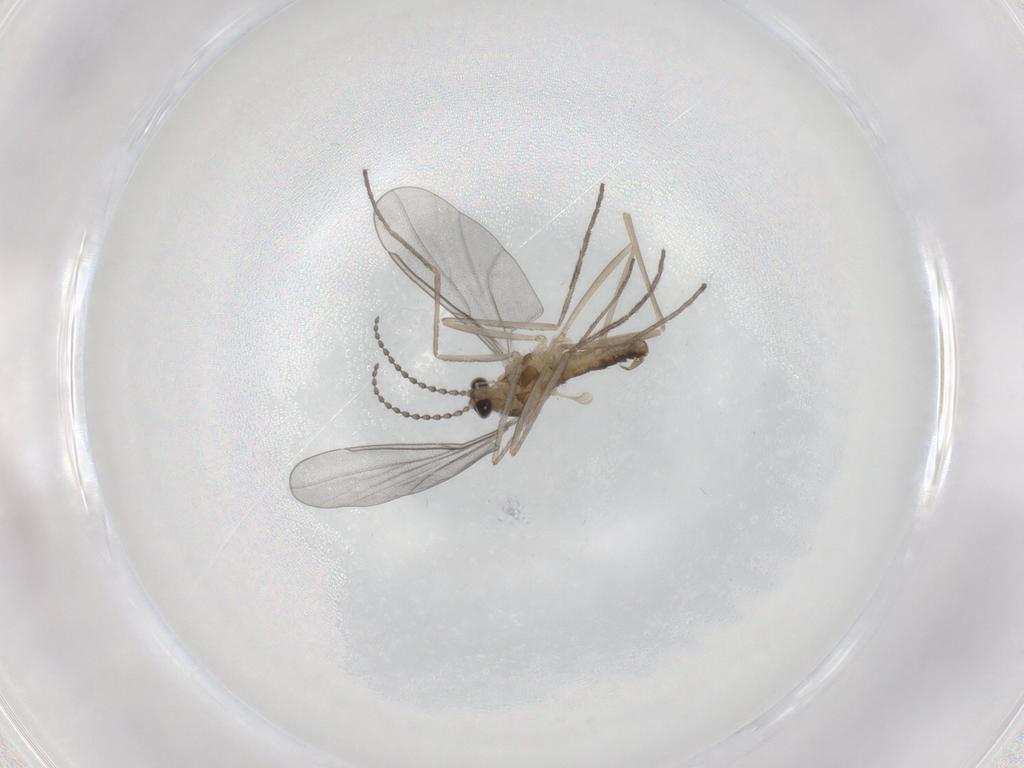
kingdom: Animalia
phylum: Arthropoda
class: Insecta
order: Diptera
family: Cecidomyiidae
